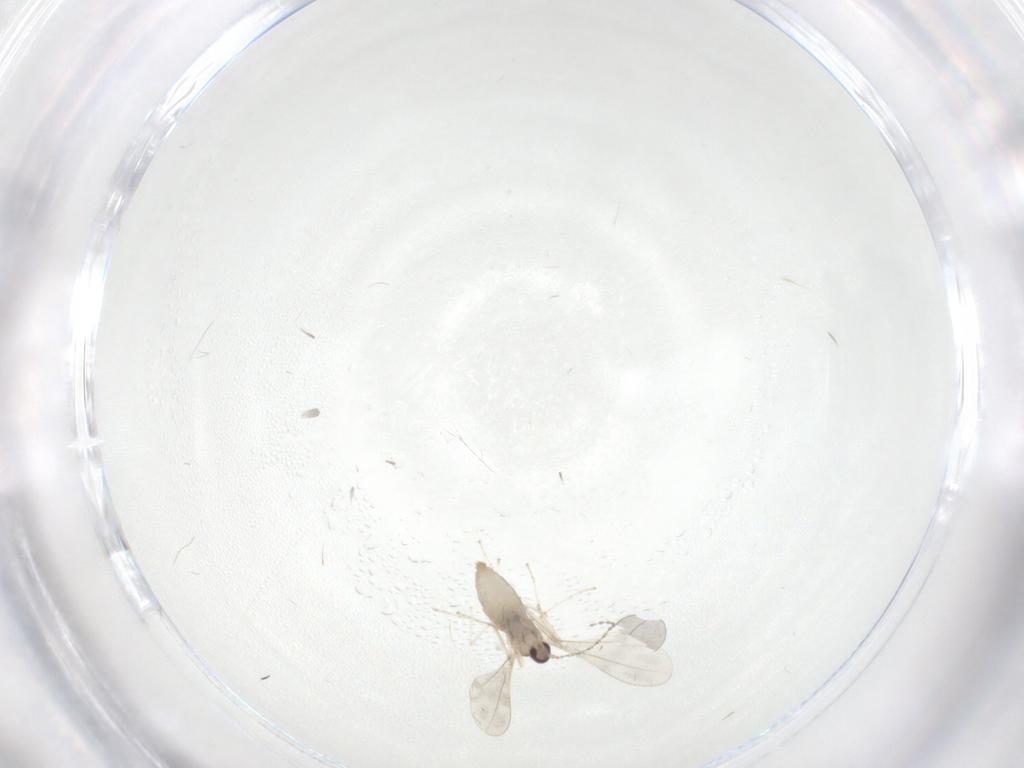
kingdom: Animalia
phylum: Arthropoda
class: Insecta
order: Diptera
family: Cecidomyiidae
